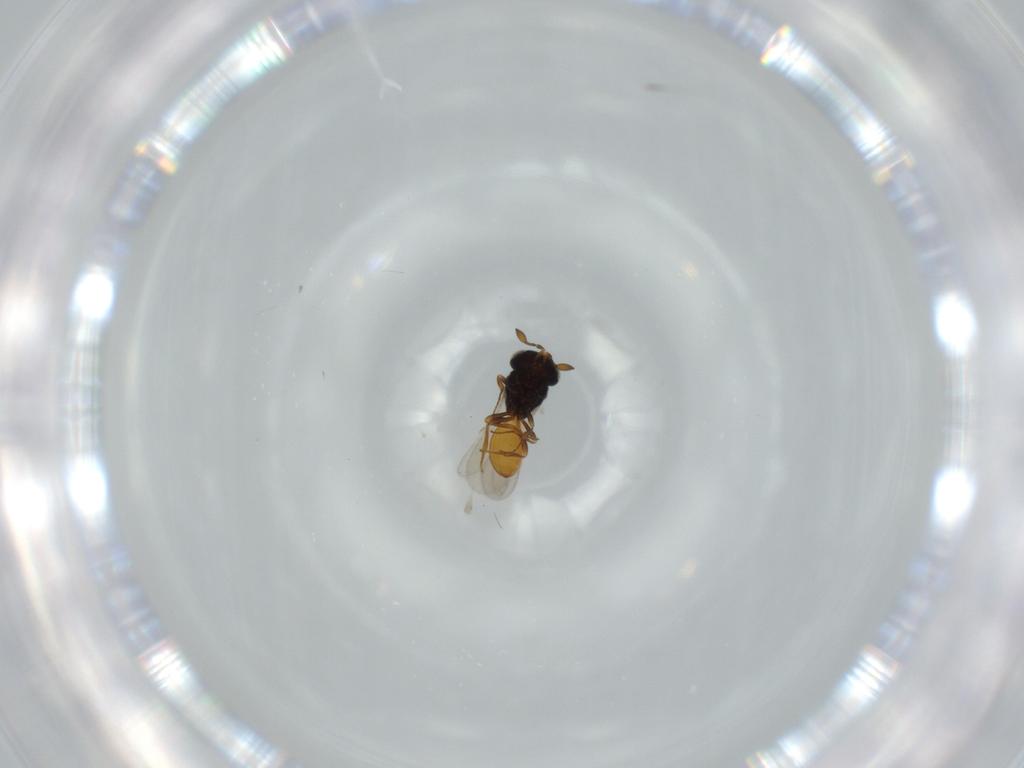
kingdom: Animalia
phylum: Arthropoda
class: Insecta
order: Hymenoptera
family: Scelionidae
